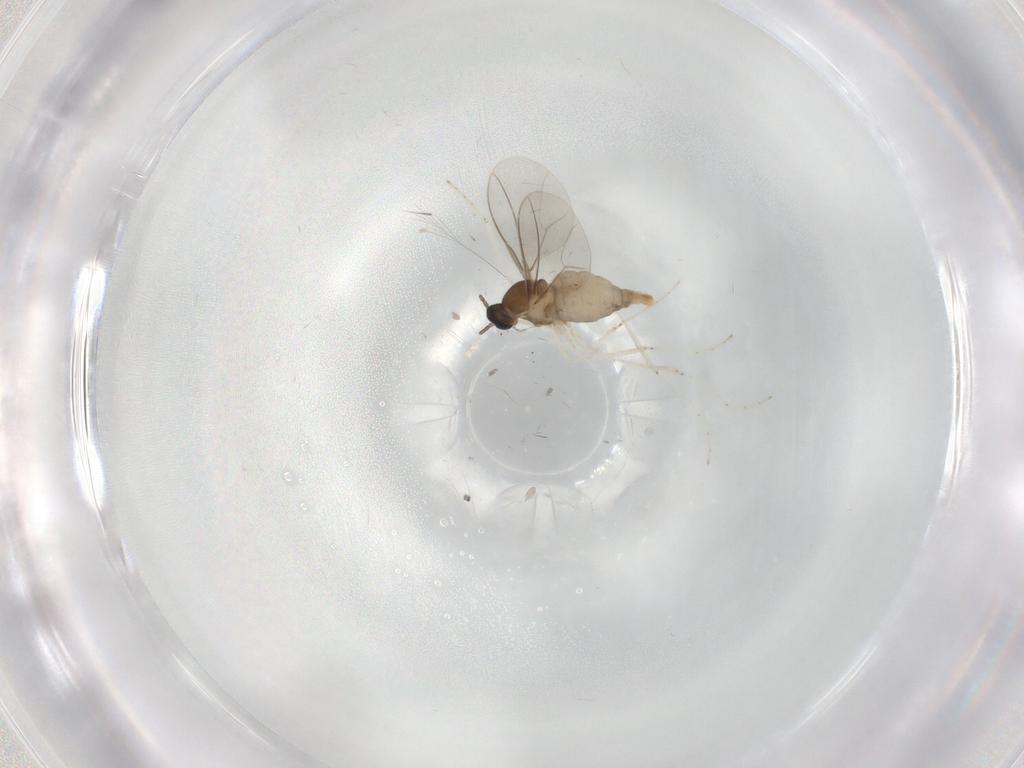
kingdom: Animalia
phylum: Arthropoda
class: Insecta
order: Diptera
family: Cecidomyiidae
